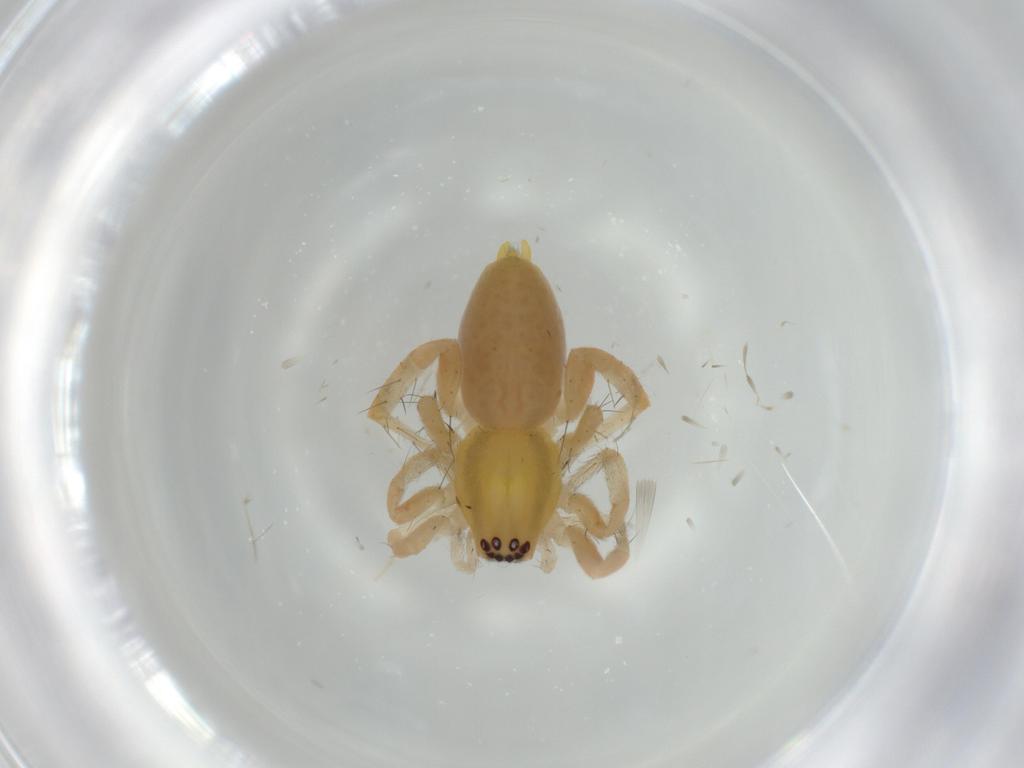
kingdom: Animalia
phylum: Arthropoda
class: Arachnida
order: Araneae
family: Anyphaenidae
